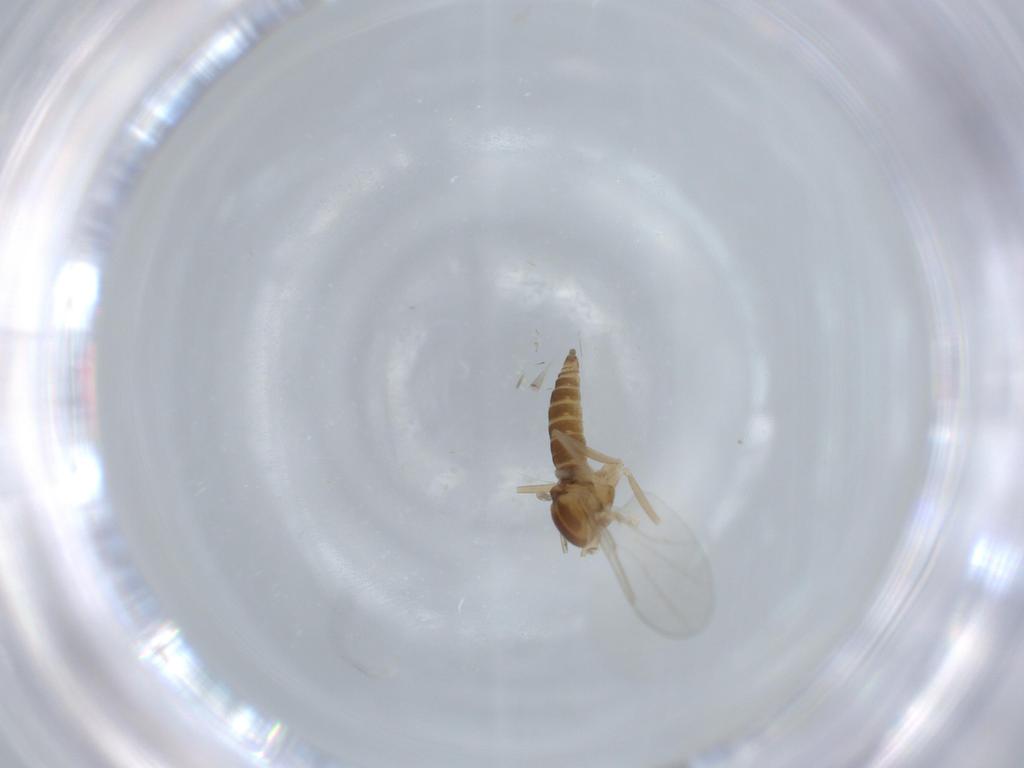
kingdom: Animalia
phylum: Arthropoda
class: Insecta
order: Diptera
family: Cecidomyiidae
